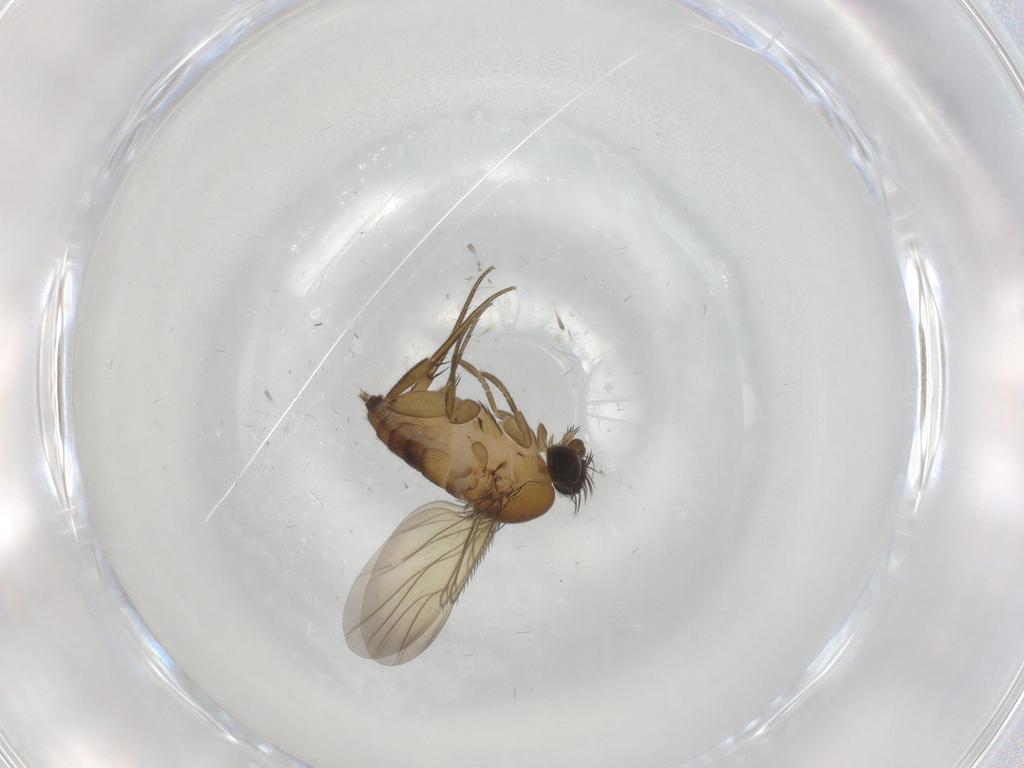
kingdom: Animalia
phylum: Arthropoda
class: Insecta
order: Diptera
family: Phoridae
